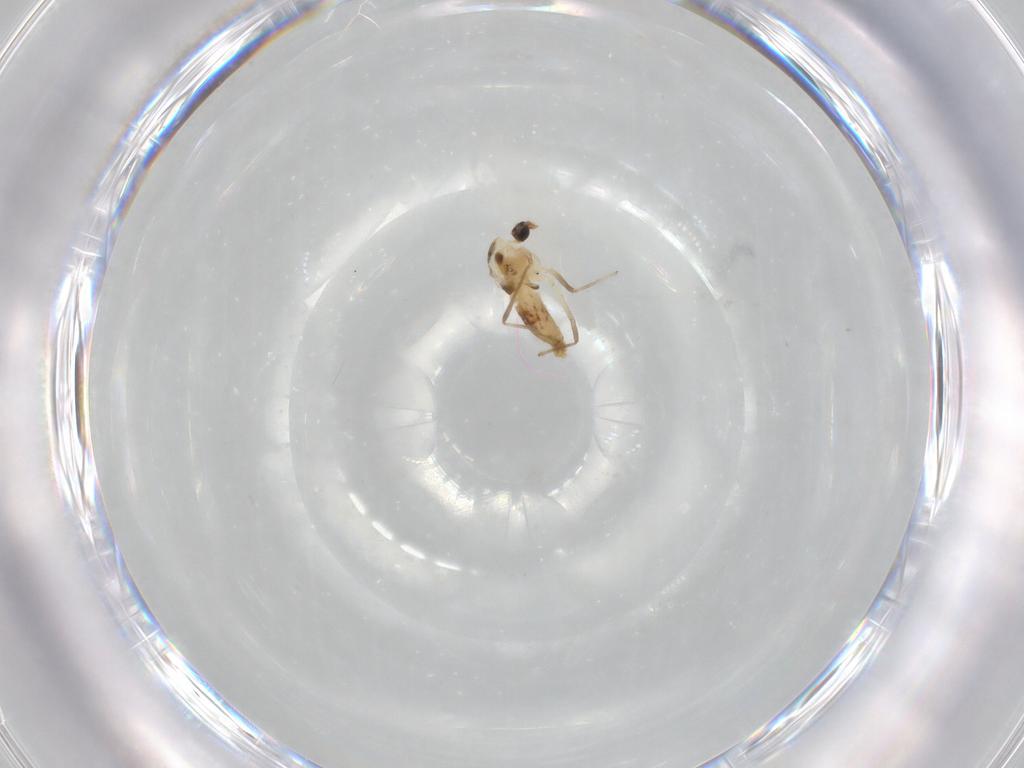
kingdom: Animalia
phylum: Arthropoda
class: Insecta
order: Diptera
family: Chironomidae
